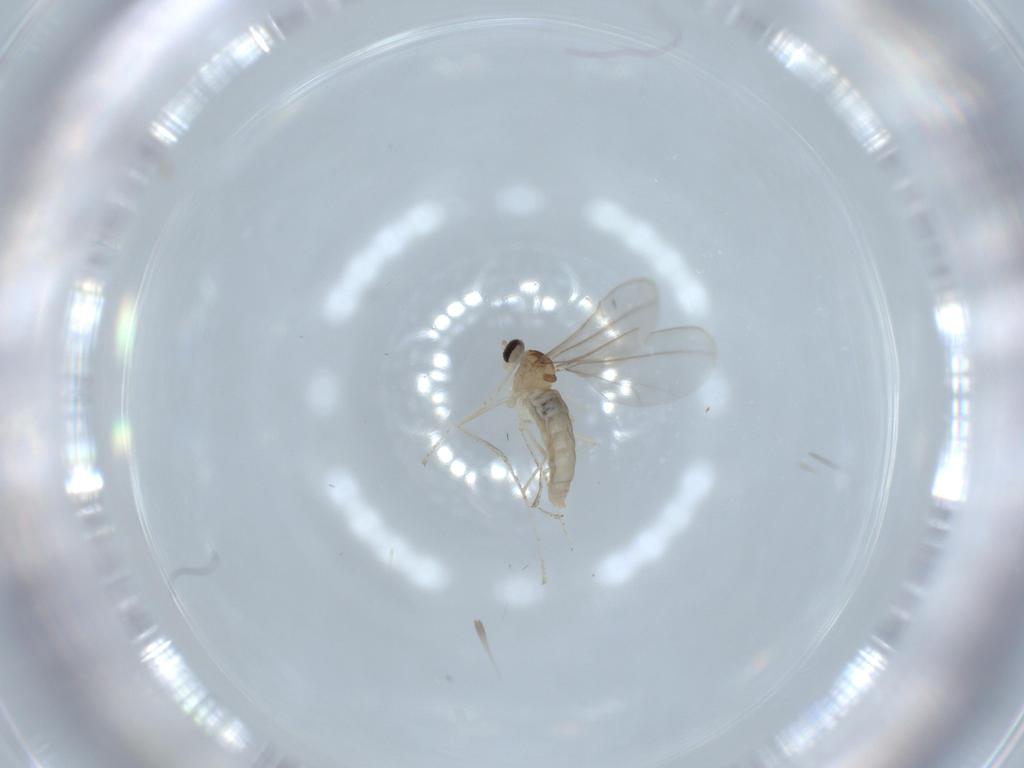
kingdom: Animalia
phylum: Arthropoda
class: Insecta
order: Diptera
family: Cecidomyiidae
